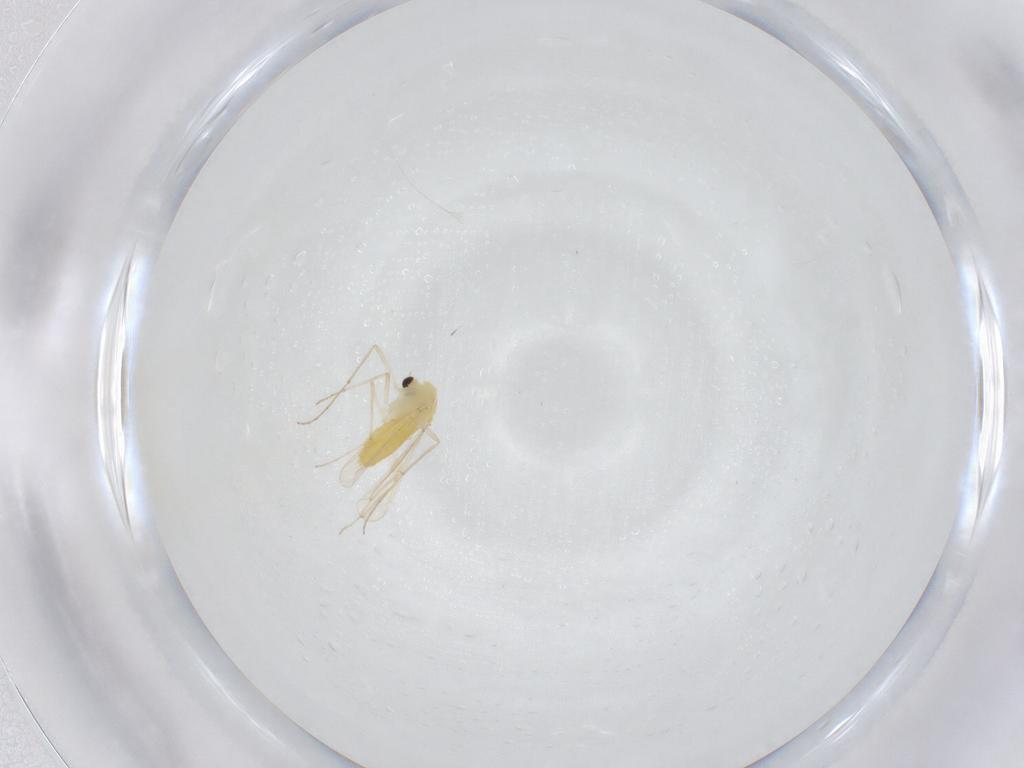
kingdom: Animalia
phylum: Arthropoda
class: Insecta
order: Diptera
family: Chironomidae
